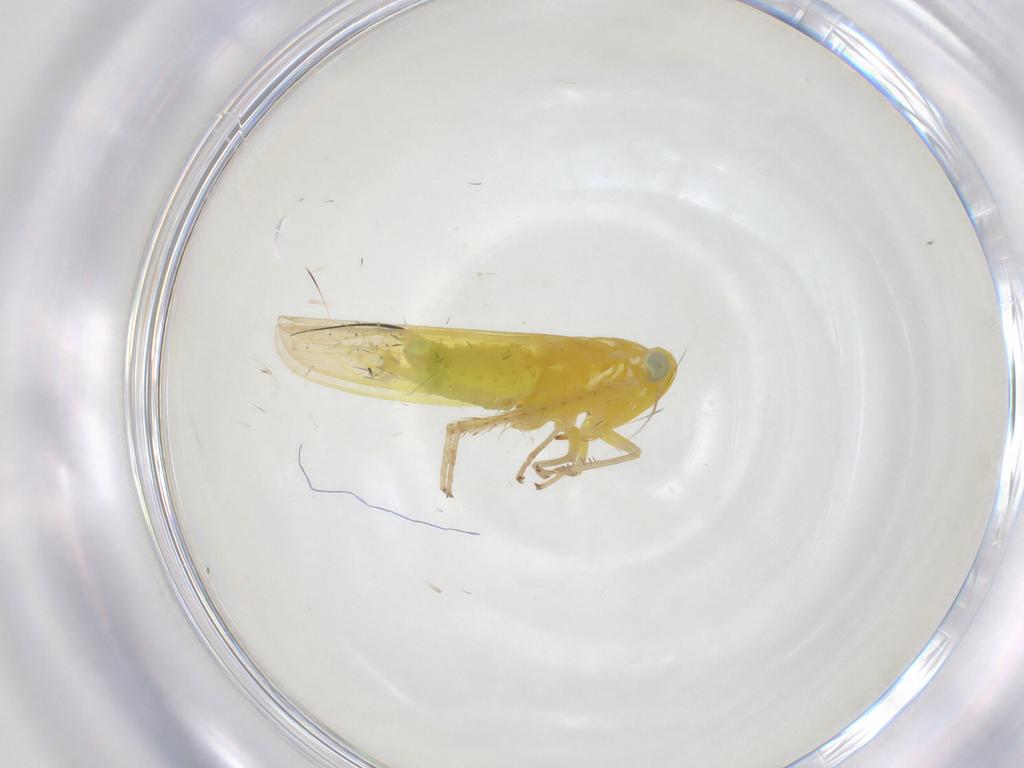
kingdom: Animalia
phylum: Arthropoda
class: Insecta
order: Hemiptera
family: Cicadellidae
